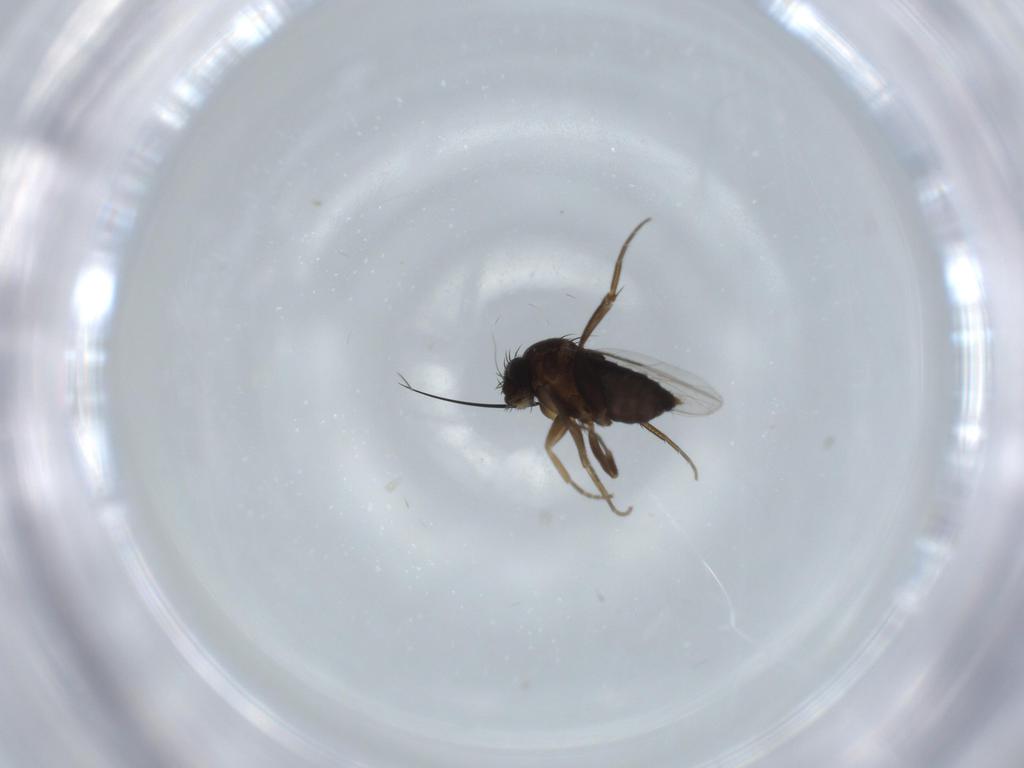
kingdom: Animalia
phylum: Arthropoda
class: Insecta
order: Diptera
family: Phoridae
